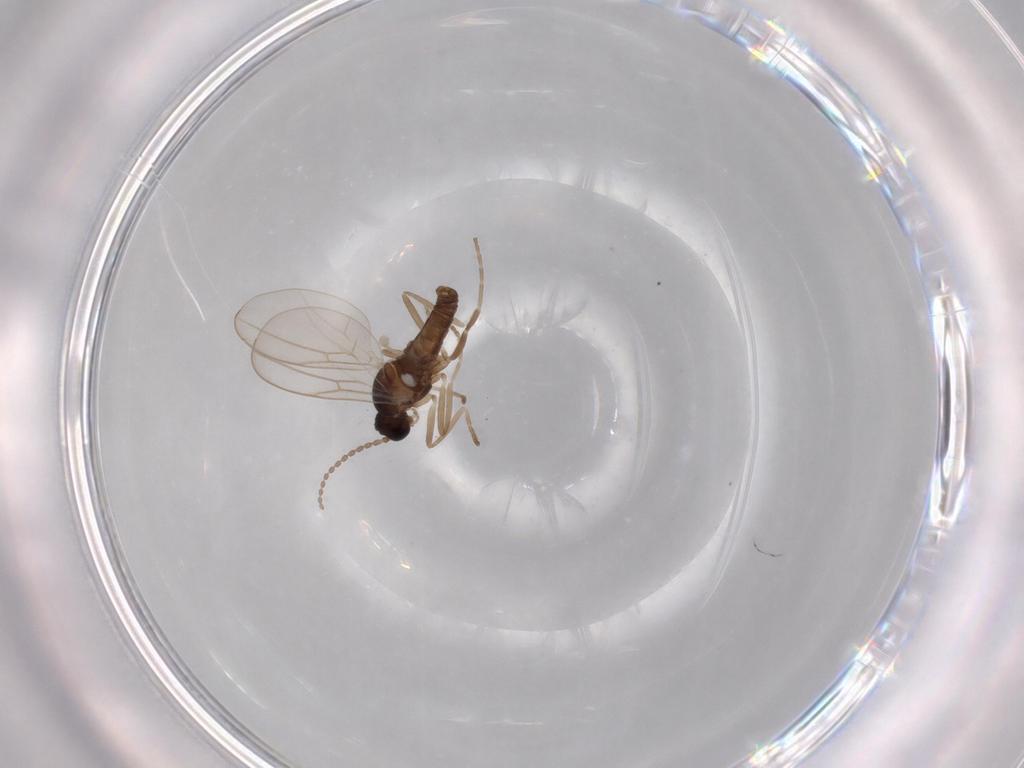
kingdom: Animalia
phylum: Arthropoda
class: Insecta
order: Diptera
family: Cecidomyiidae
